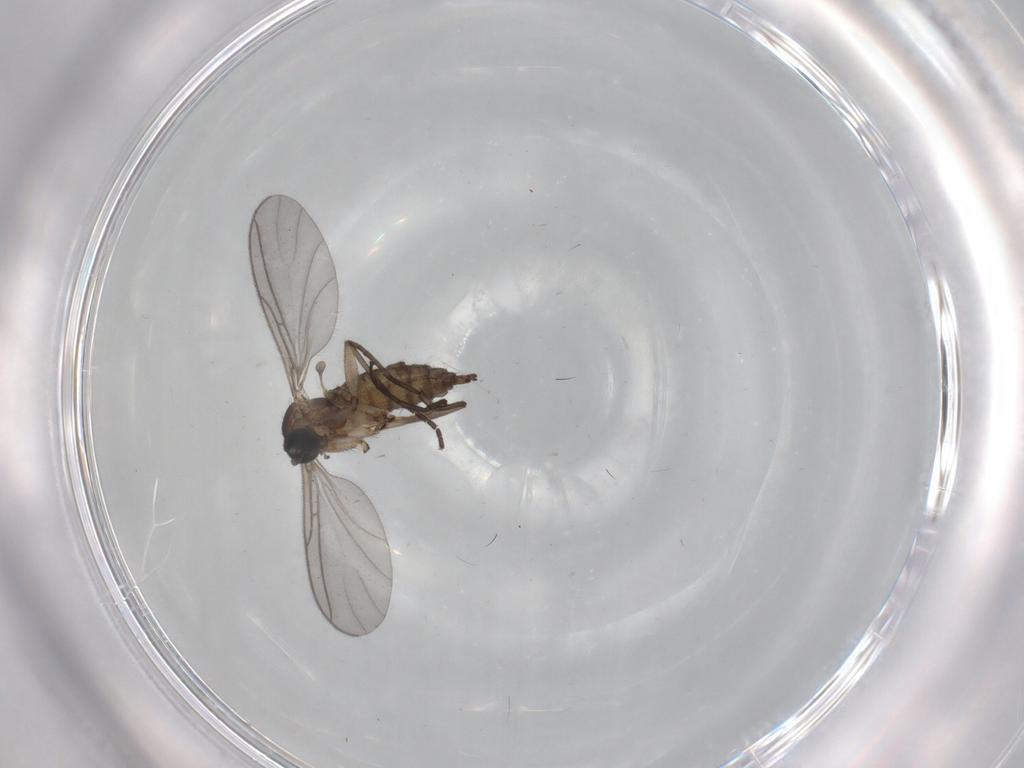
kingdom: Animalia
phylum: Arthropoda
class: Insecta
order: Diptera
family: Sciaridae
